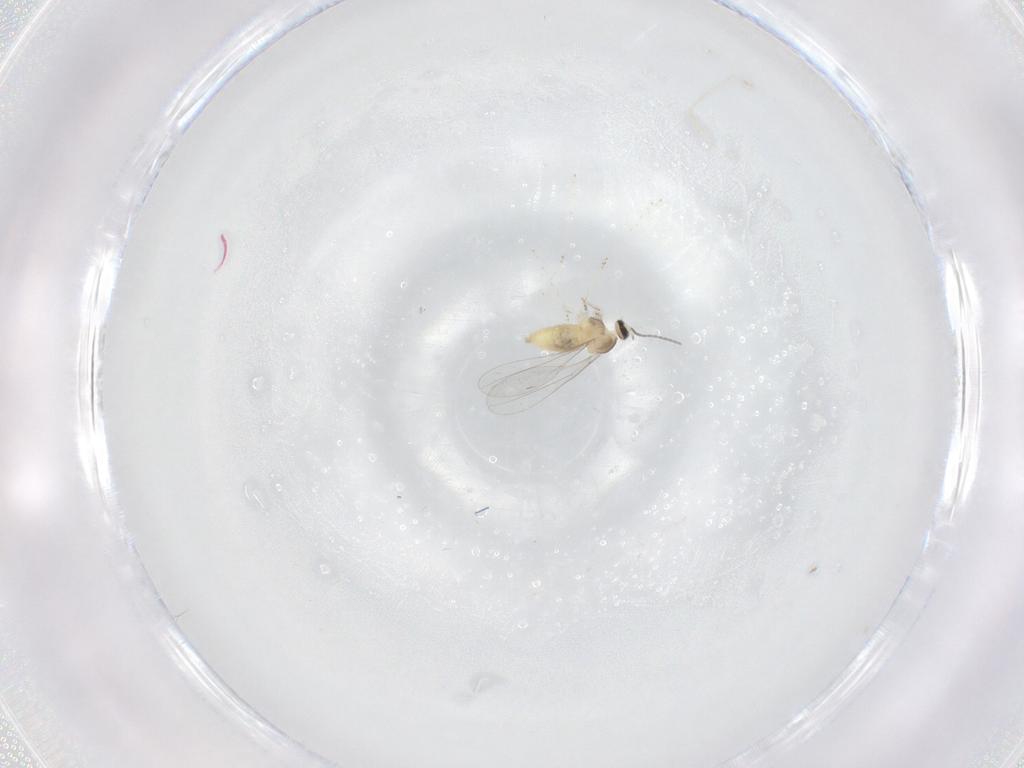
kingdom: Animalia
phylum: Arthropoda
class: Insecta
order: Diptera
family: Cecidomyiidae
